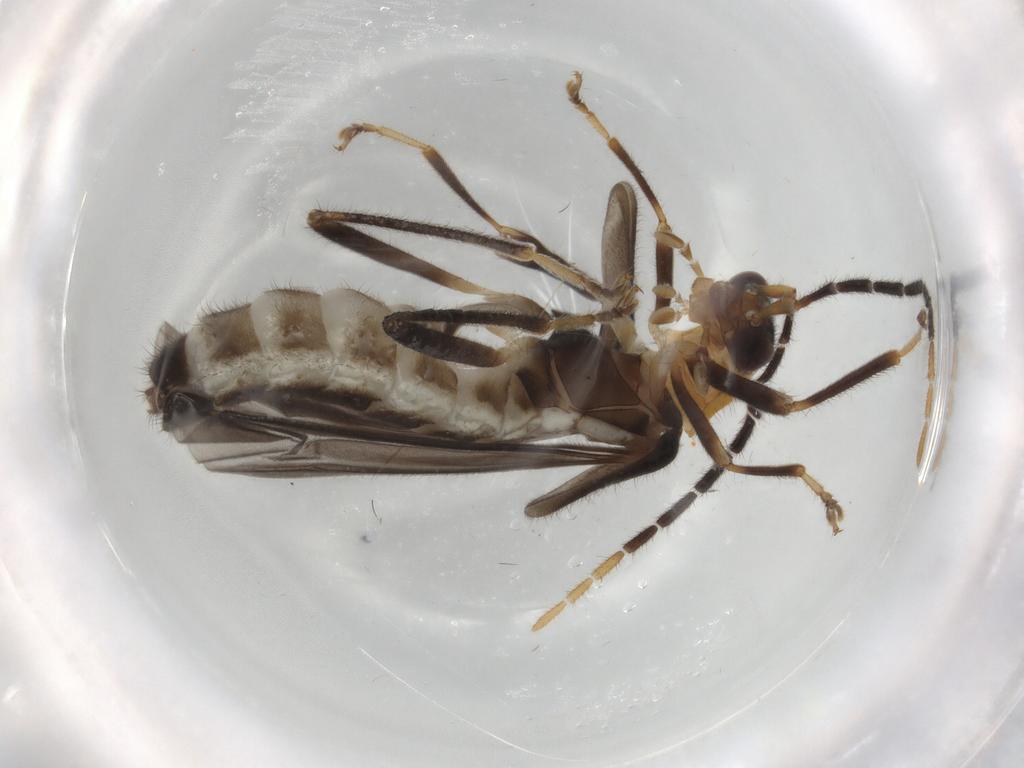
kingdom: Animalia
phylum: Arthropoda
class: Insecta
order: Coleoptera
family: Cantharidae
